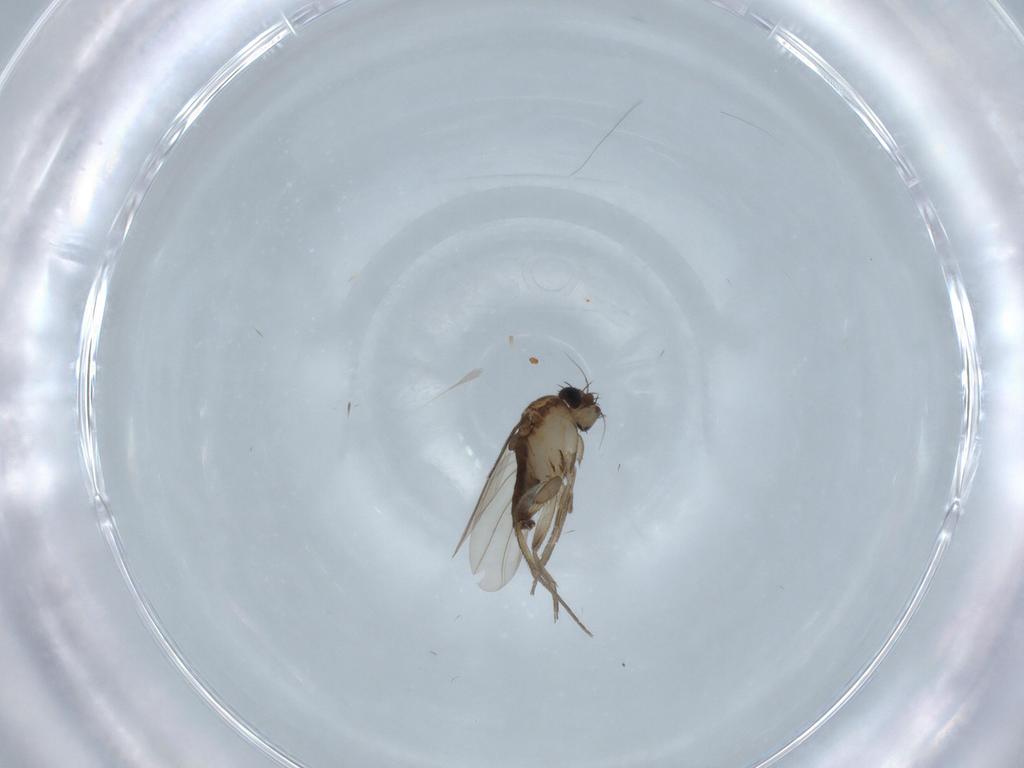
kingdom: Animalia
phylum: Arthropoda
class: Insecta
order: Diptera
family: Phoridae
